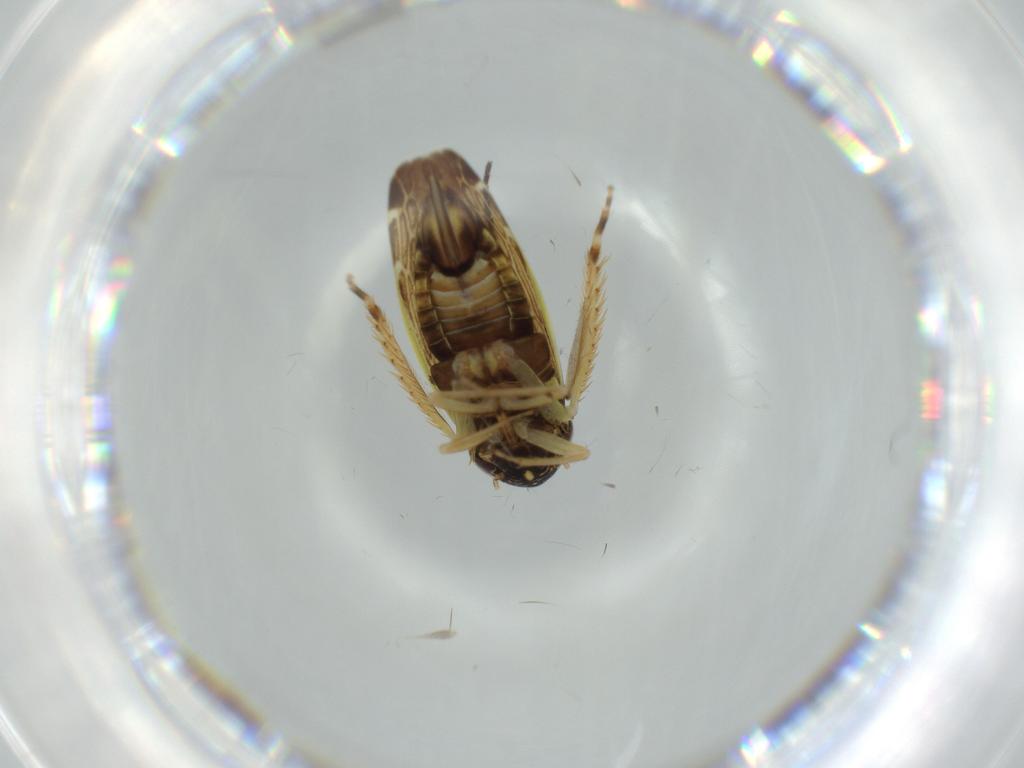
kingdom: Animalia
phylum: Arthropoda
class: Insecta
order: Hemiptera
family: Cicadellidae
